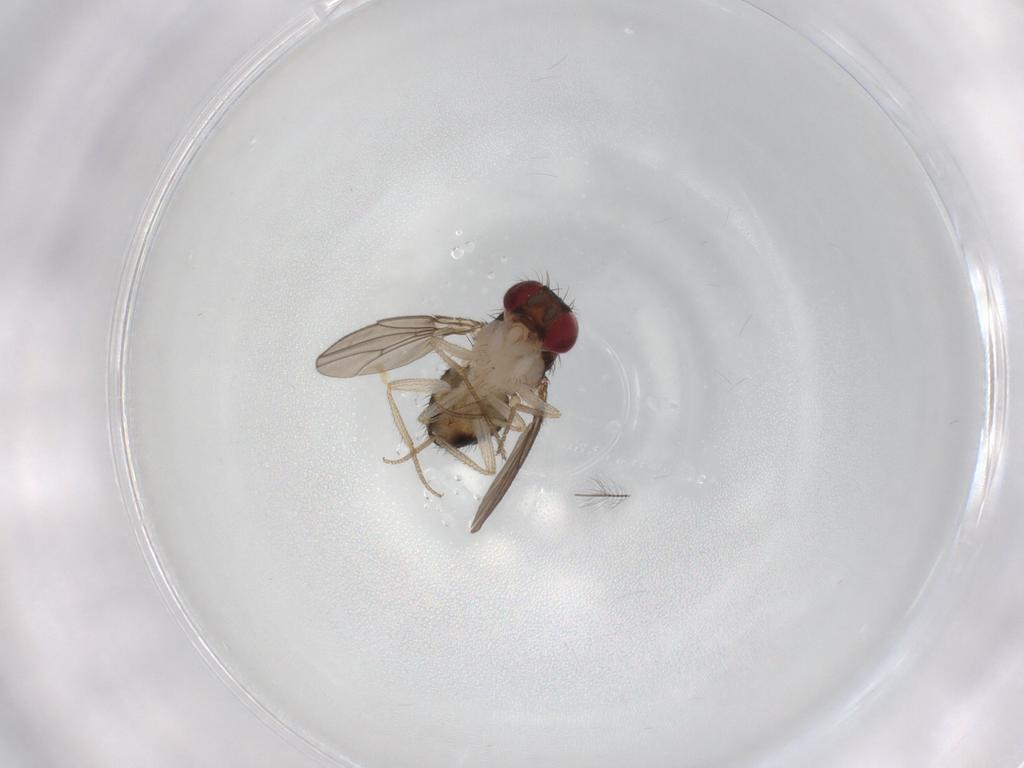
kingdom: Animalia
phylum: Arthropoda
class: Insecta
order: Diptera
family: Drosophilidae
